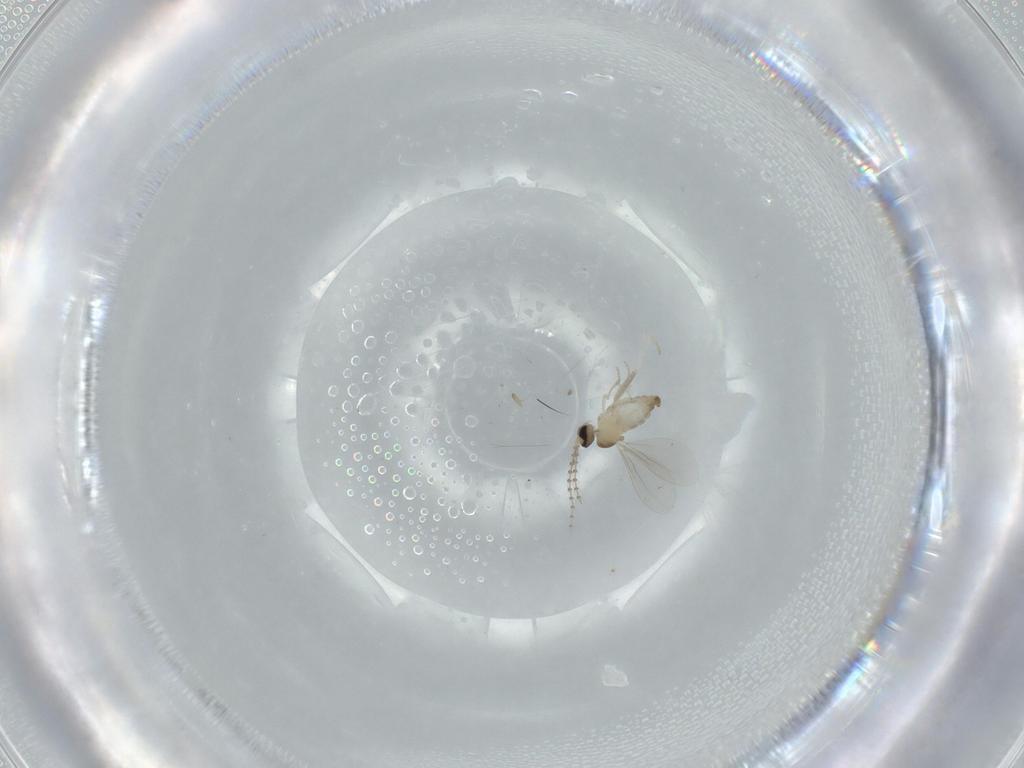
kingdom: Animalia
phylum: Arthropoda
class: Insecta
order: Diptera
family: Cecidomyiidae
